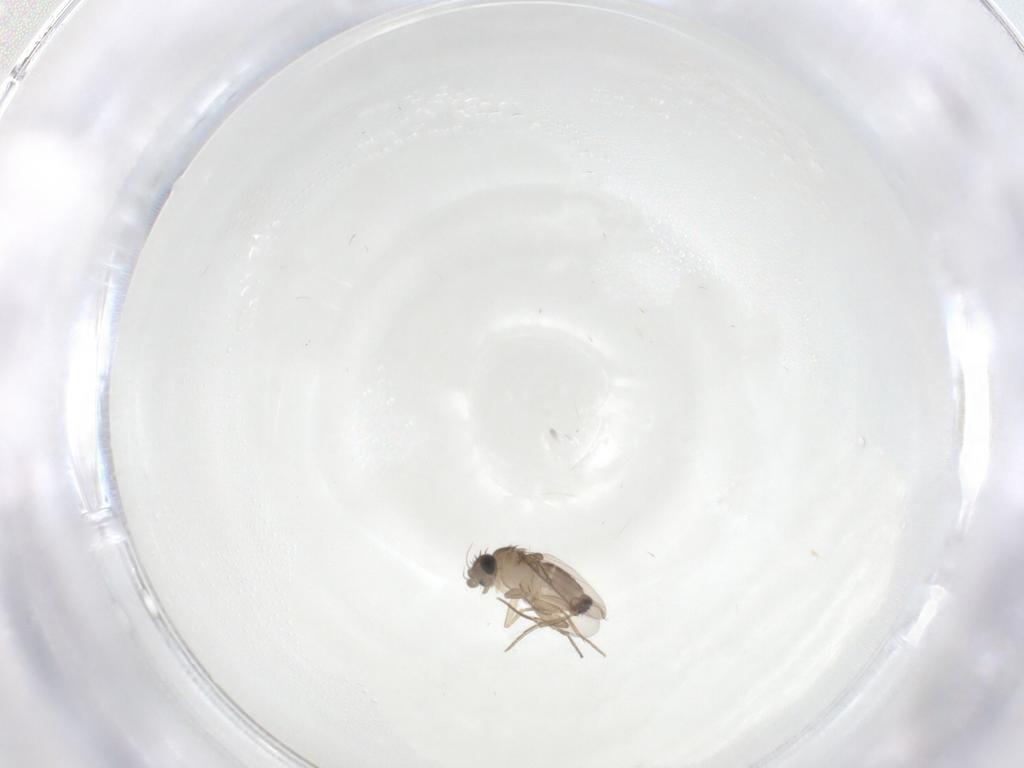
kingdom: Animalia
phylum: Arthropoda
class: Insecta
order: Diptera
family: Phoridae
